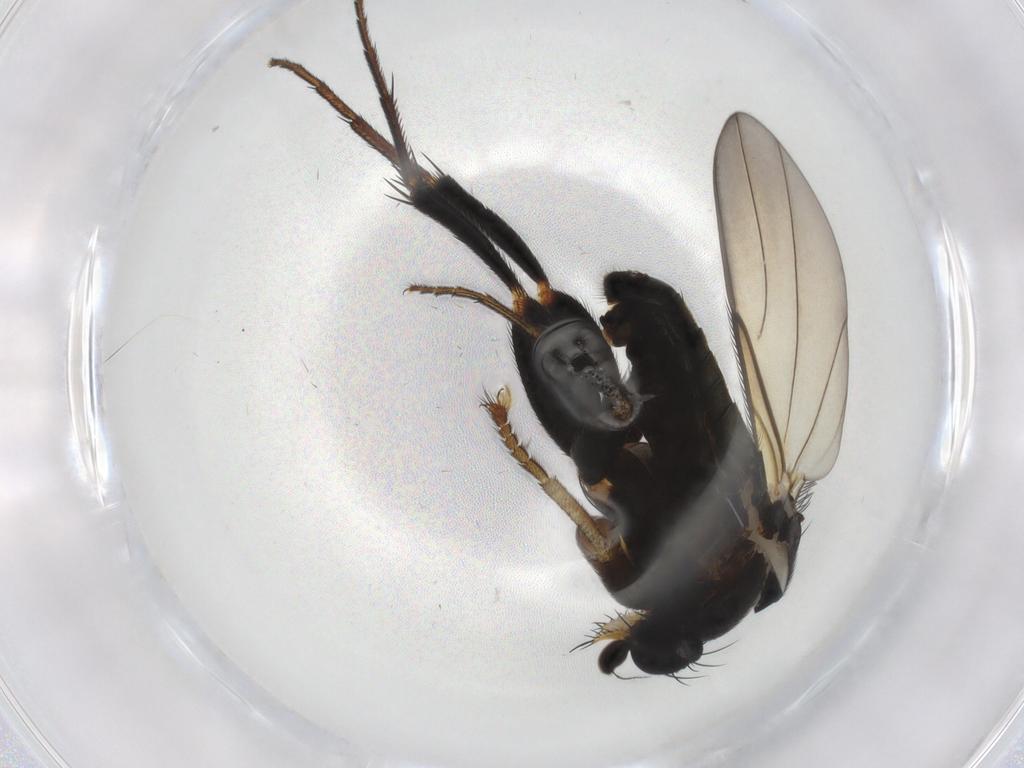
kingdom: Animalia
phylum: Arthropoda
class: Insecta
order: Diptera
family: Phoridae
